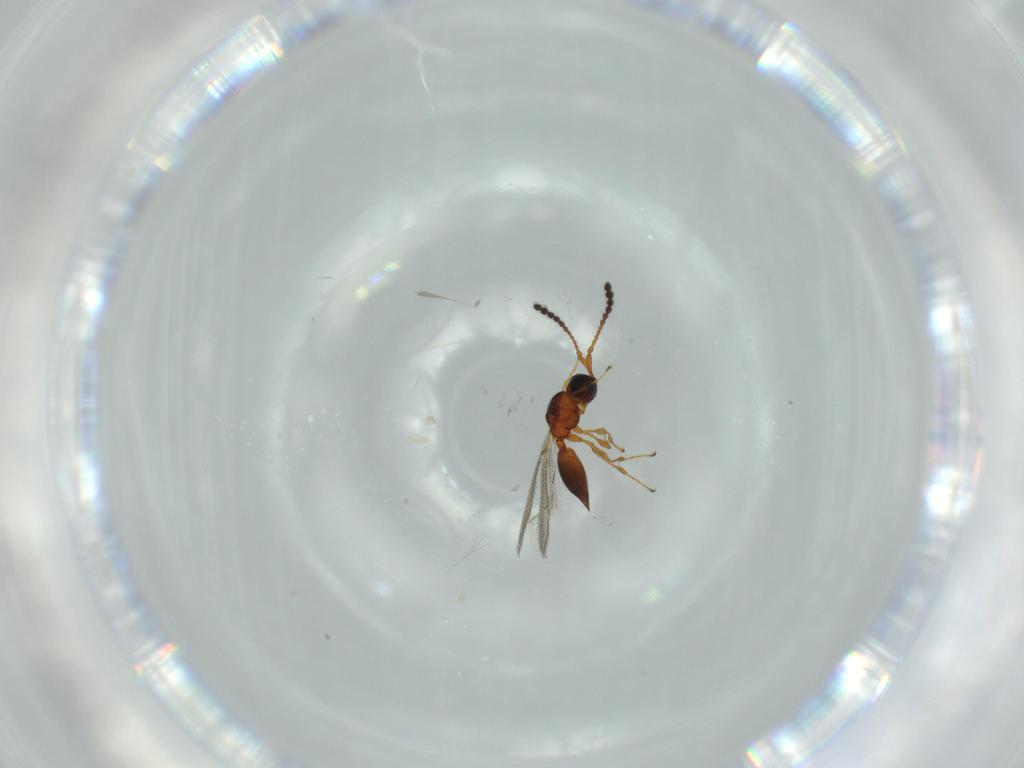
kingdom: Animalia
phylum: Arthropoda
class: Insecta
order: Hymenoptera
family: Diapriidae
